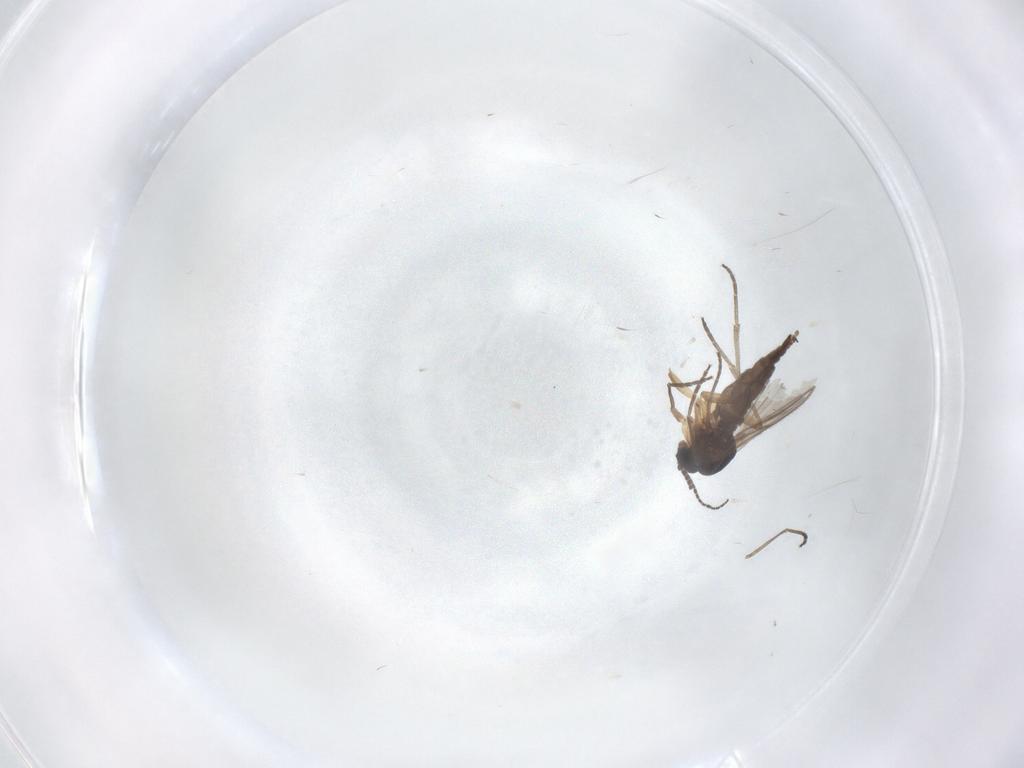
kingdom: Animalia
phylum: Arthropoda
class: Insecta
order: Diptera
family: Sciaridae
